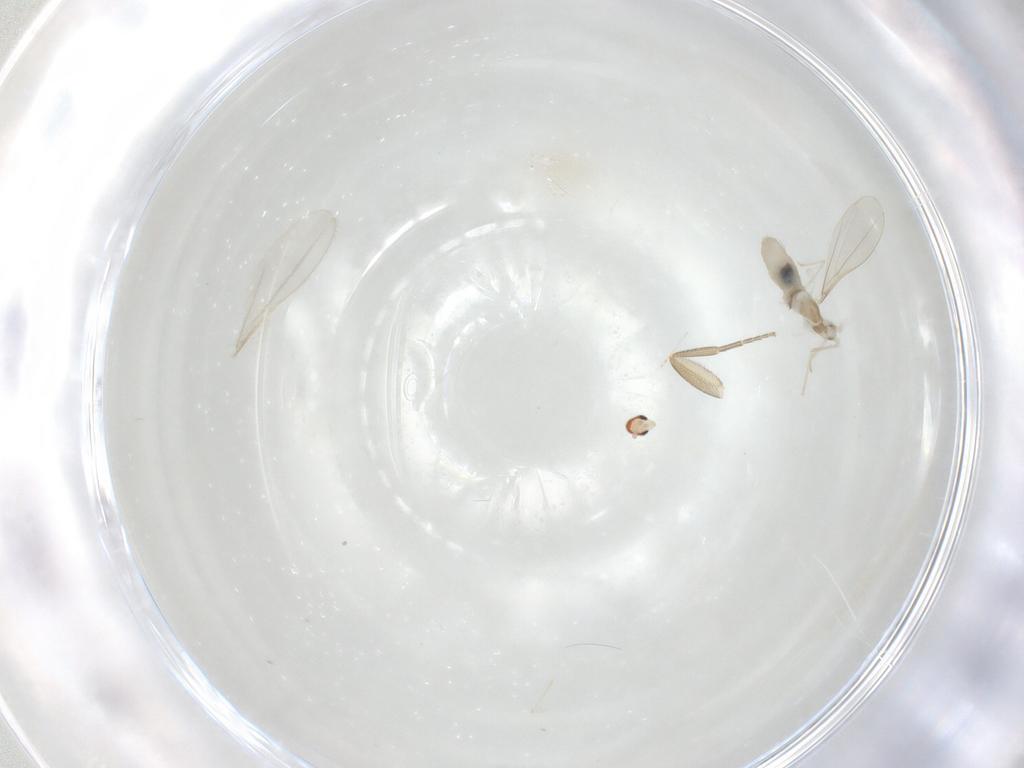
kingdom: Animalia
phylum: Arthropoda
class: Insecta
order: Diptera
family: Cecidomyiidae
